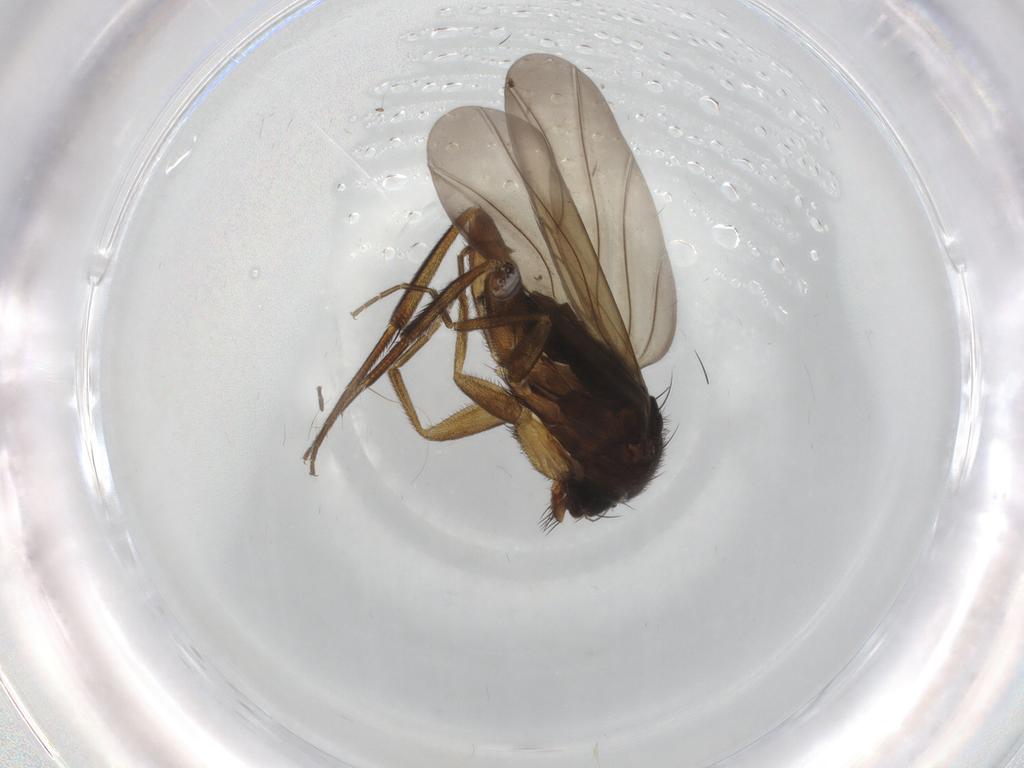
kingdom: Animalia
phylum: Arthropoda
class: Insecta
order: Diptera
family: Phoridae
